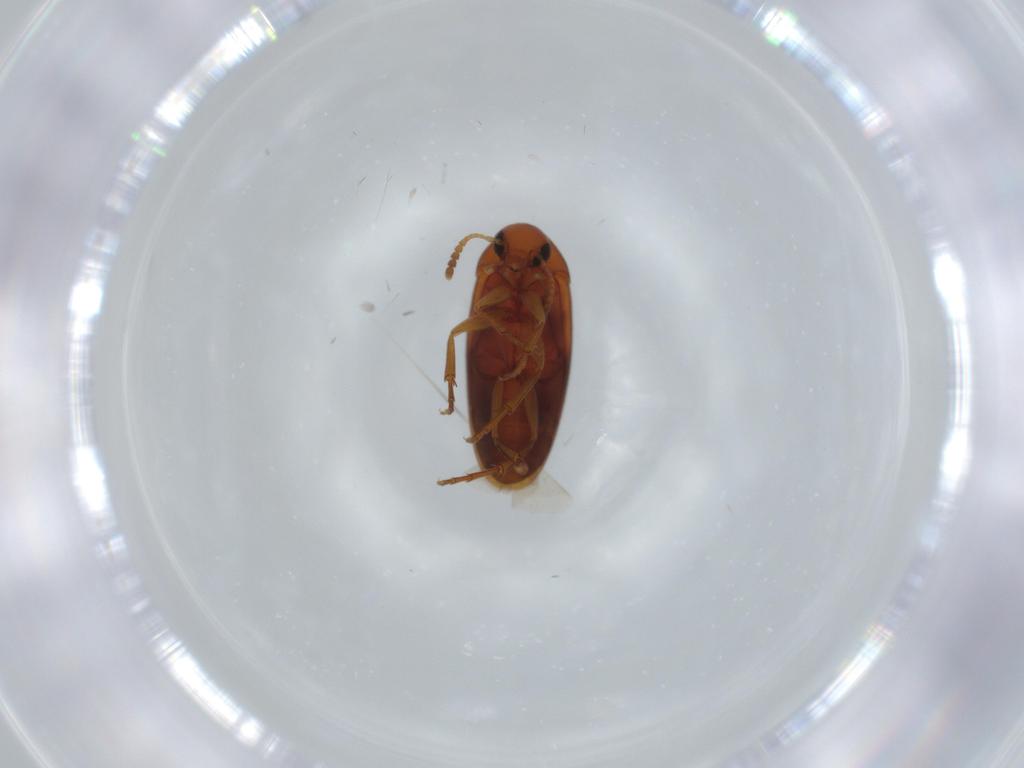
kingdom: Animalia
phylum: Arthropoda
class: Insecta
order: Coleoptera
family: Scraptiidae
